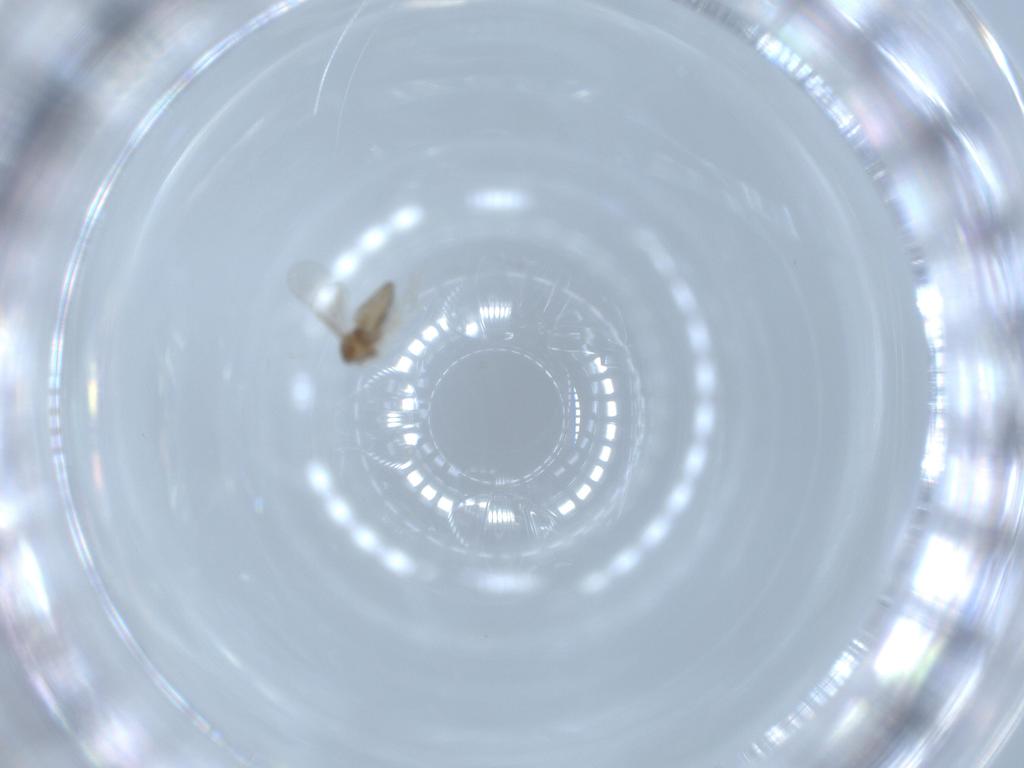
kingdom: Animalia
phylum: Arthropoda
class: Insecta
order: Diptera
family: Cecidomyiidae
